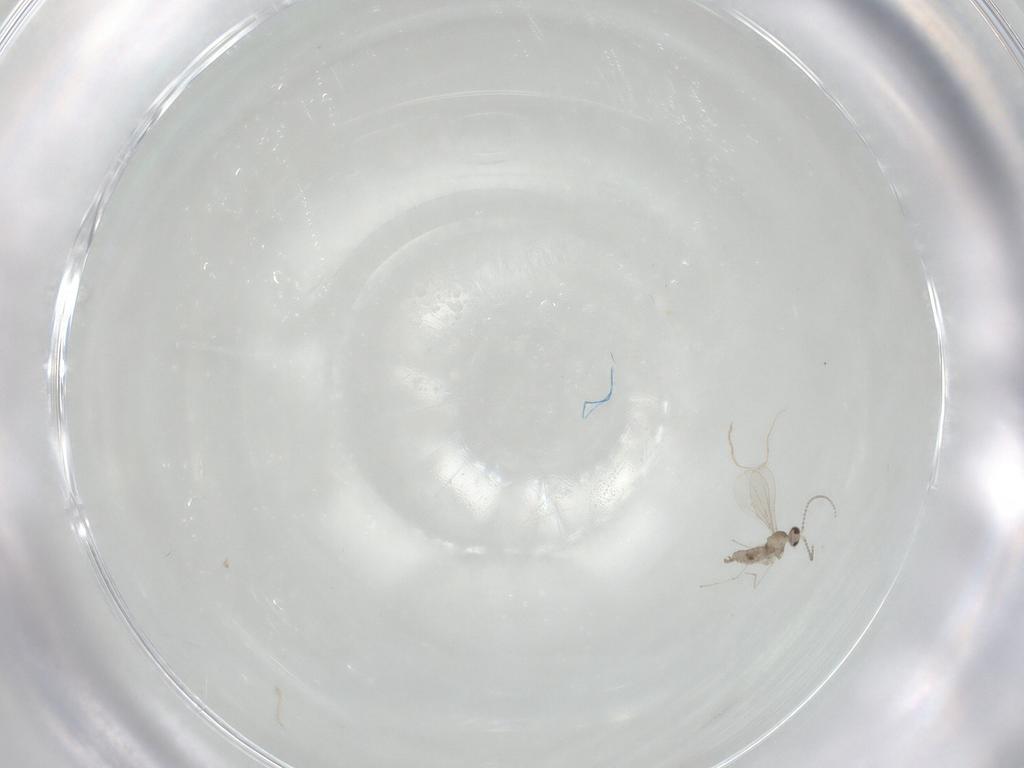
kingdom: Animalia
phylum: Arthropoda
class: Insecta
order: Diptera
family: Cecidomyiidae
